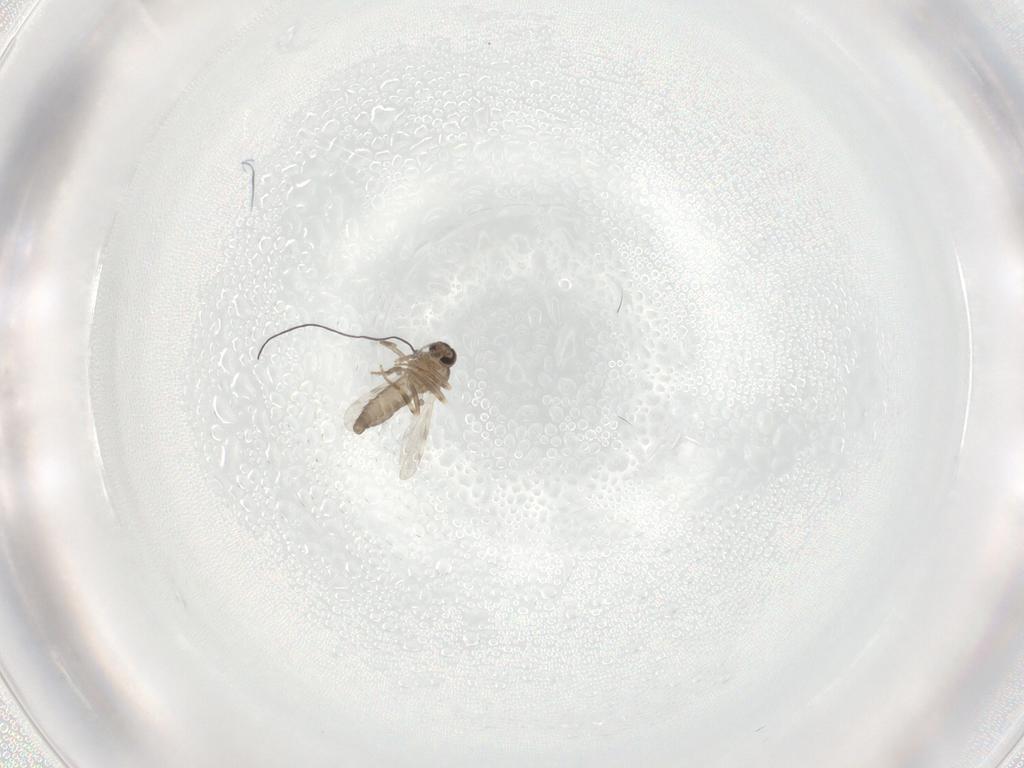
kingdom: Animalia
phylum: Arthropoda
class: Insecta
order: Diptera
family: Ceratopogonidae
